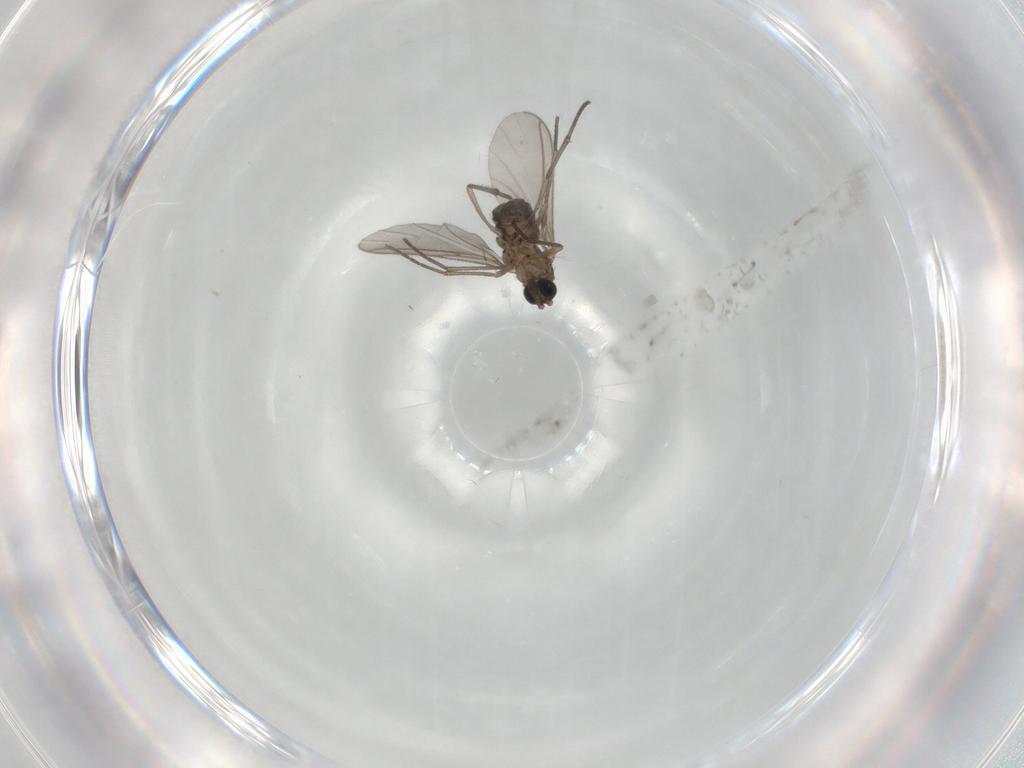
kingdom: Animalia
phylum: Arthropoda
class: Insecta
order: Diptera
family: Sciaridae
